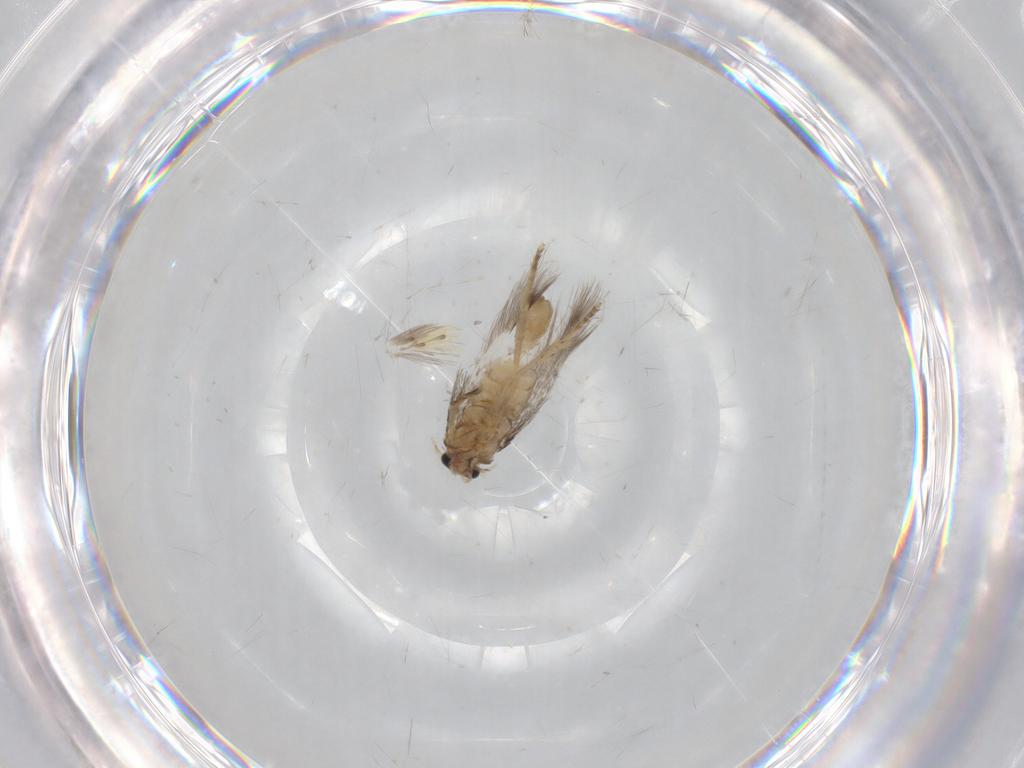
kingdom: Animalia
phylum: Arthropoda
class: Insecta
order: Lepidoptera
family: Nepticulidae
